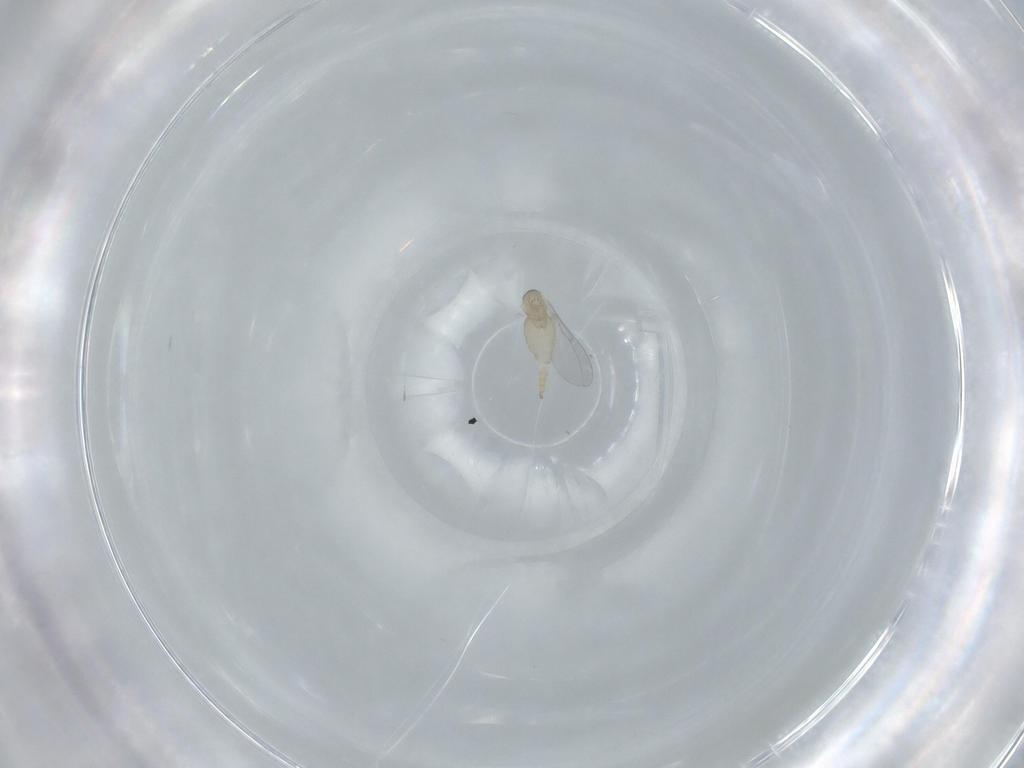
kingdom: Animalia
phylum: Arthropoda
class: Insecta
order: Diptera
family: Cecidomyiidae
